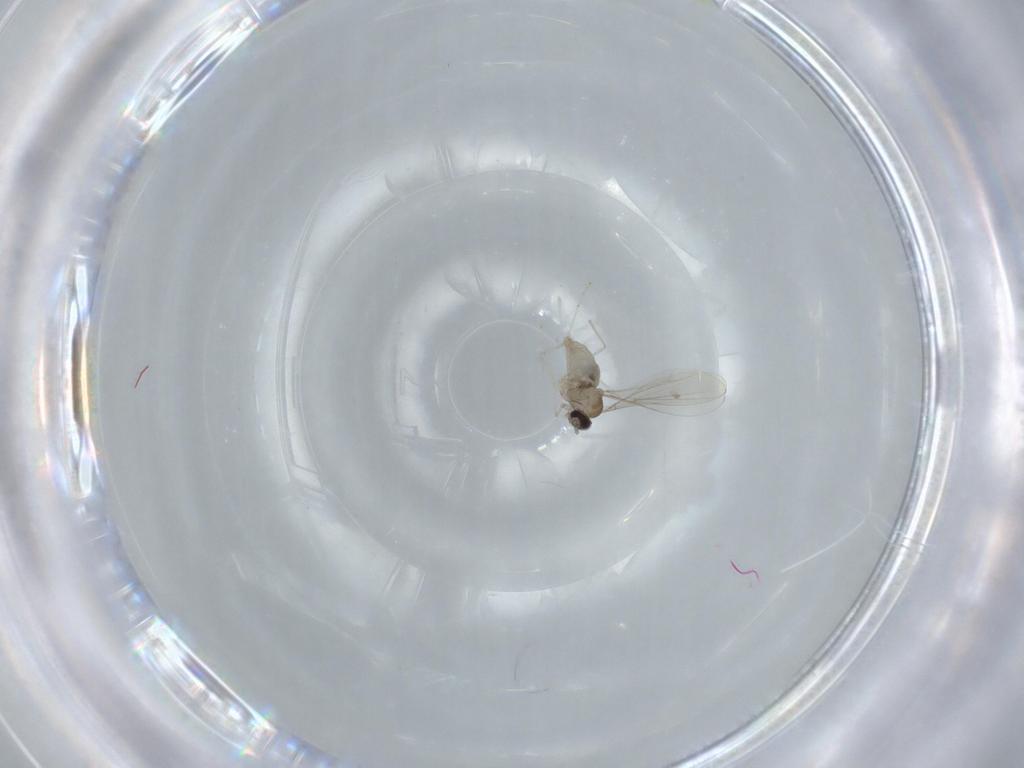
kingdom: Animalia
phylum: Arthropoda
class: Insecta
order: Diptera
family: Cecidomyiidae
